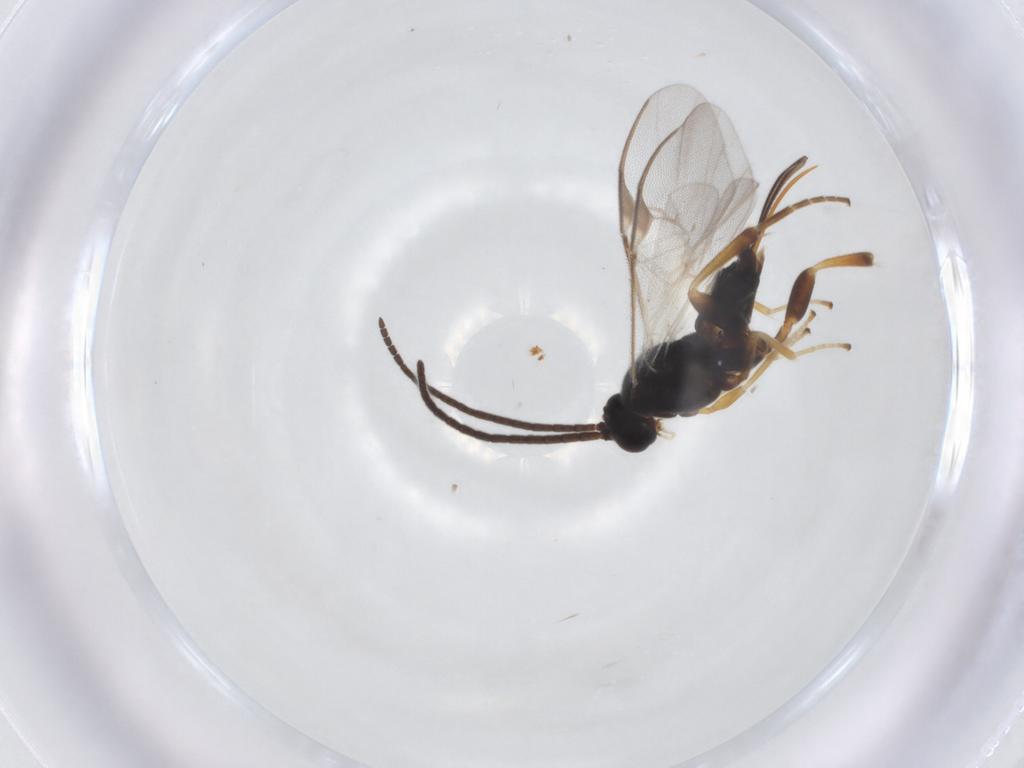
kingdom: Animalia
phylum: Arthropoda
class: Insecta
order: Hymenoptera
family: Braconidae
